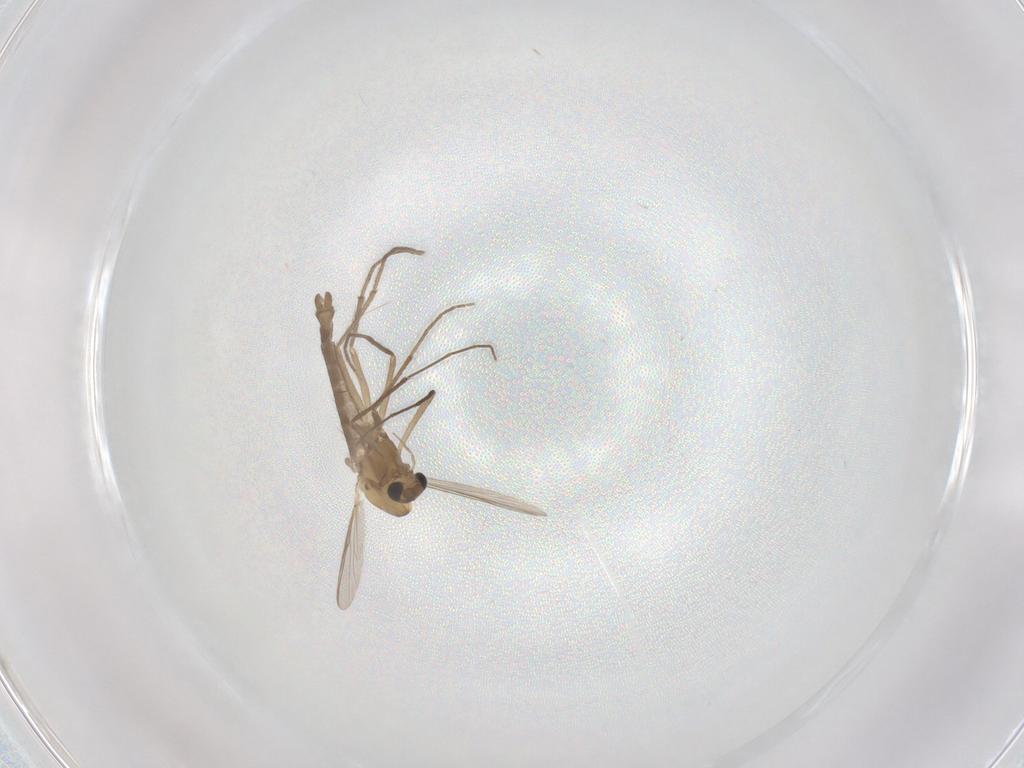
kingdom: Animalia
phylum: Arthropoda
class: Insecta
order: Diptera
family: Chironomidae
